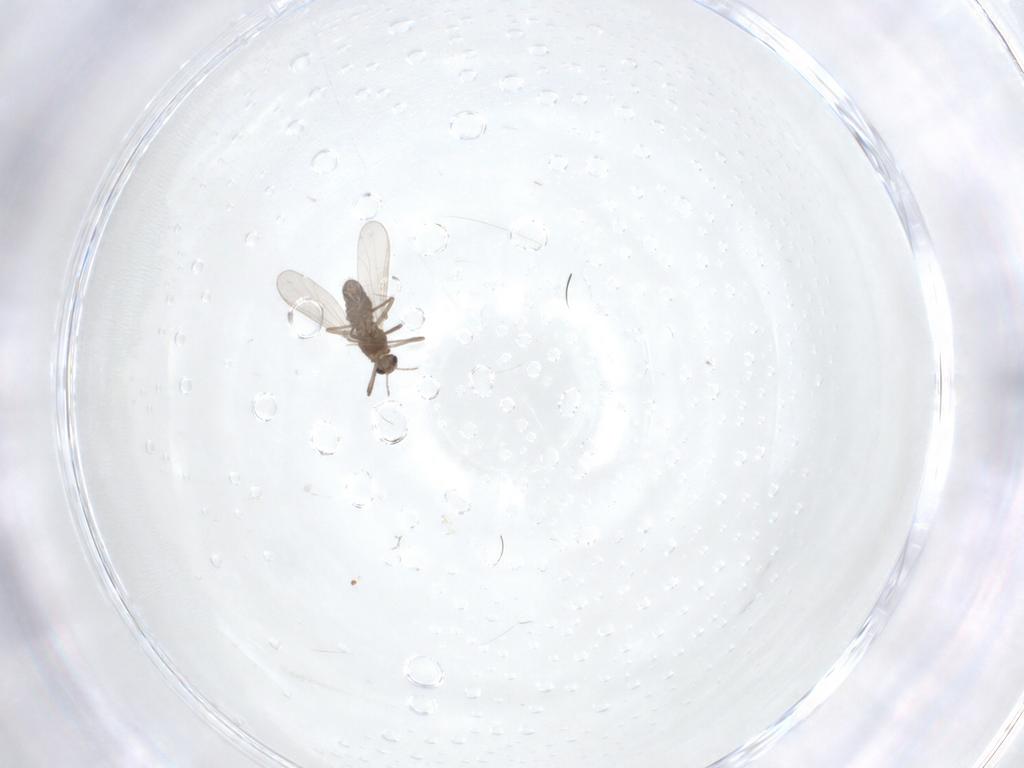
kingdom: Animalia
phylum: Arthropoda
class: Insecta
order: Diptera
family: Chironomidae
